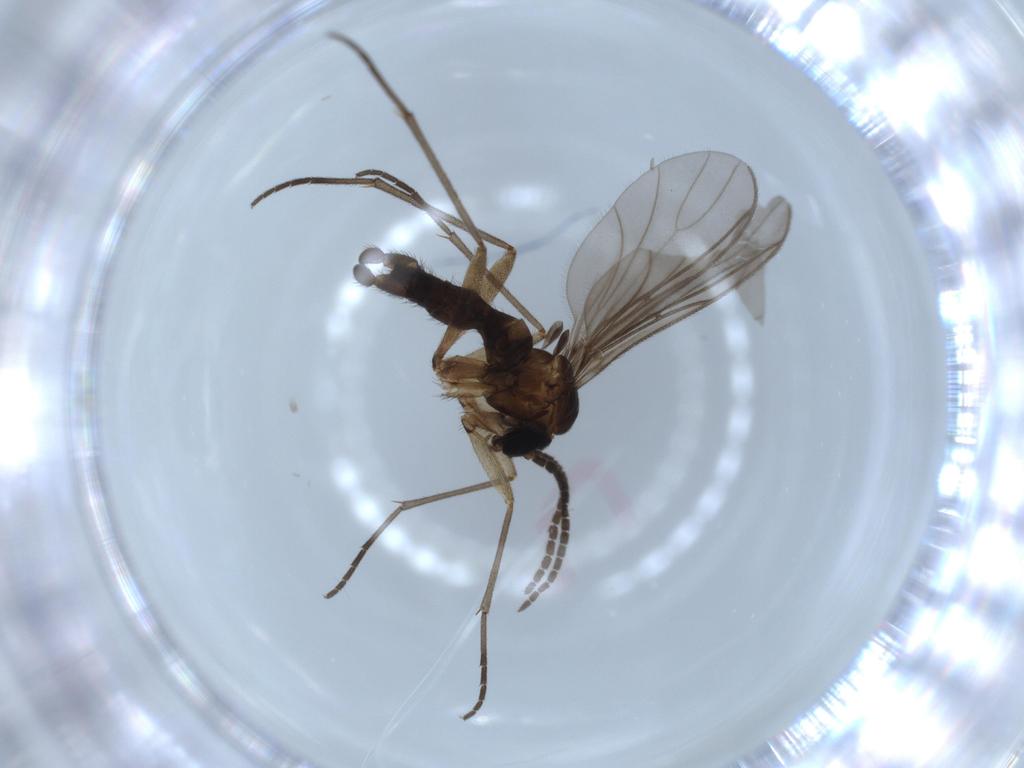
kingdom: Animalia
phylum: Arthropoda
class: Insecta
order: Diptera
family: Sciaridae
